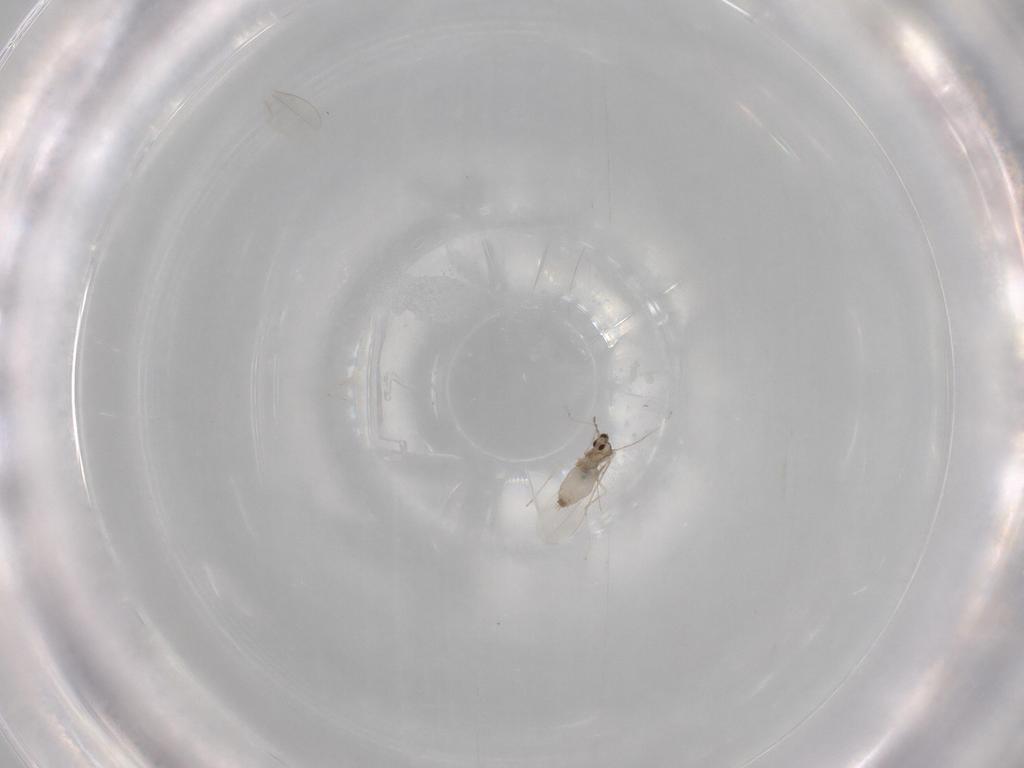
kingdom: Animalia
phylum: Arthropoda
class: Insecta
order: Diptera
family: Cecidomyiidae
